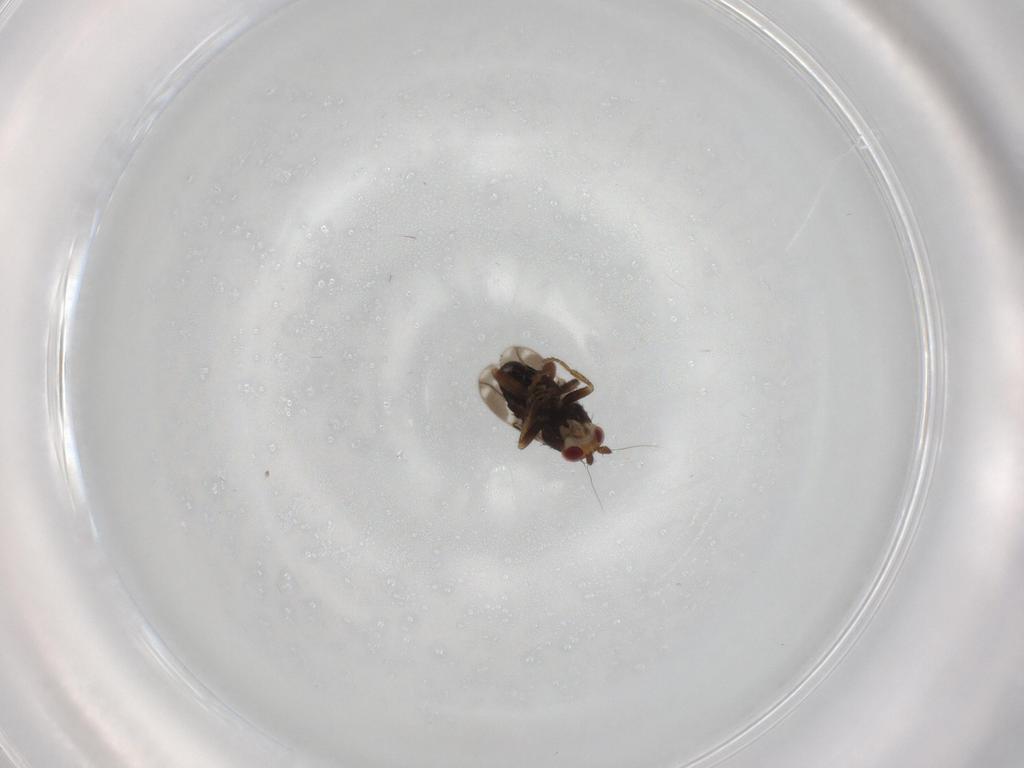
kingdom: Animalia
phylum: Arthropoda
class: Insecta
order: Diptera
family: Sphaeroceridae
